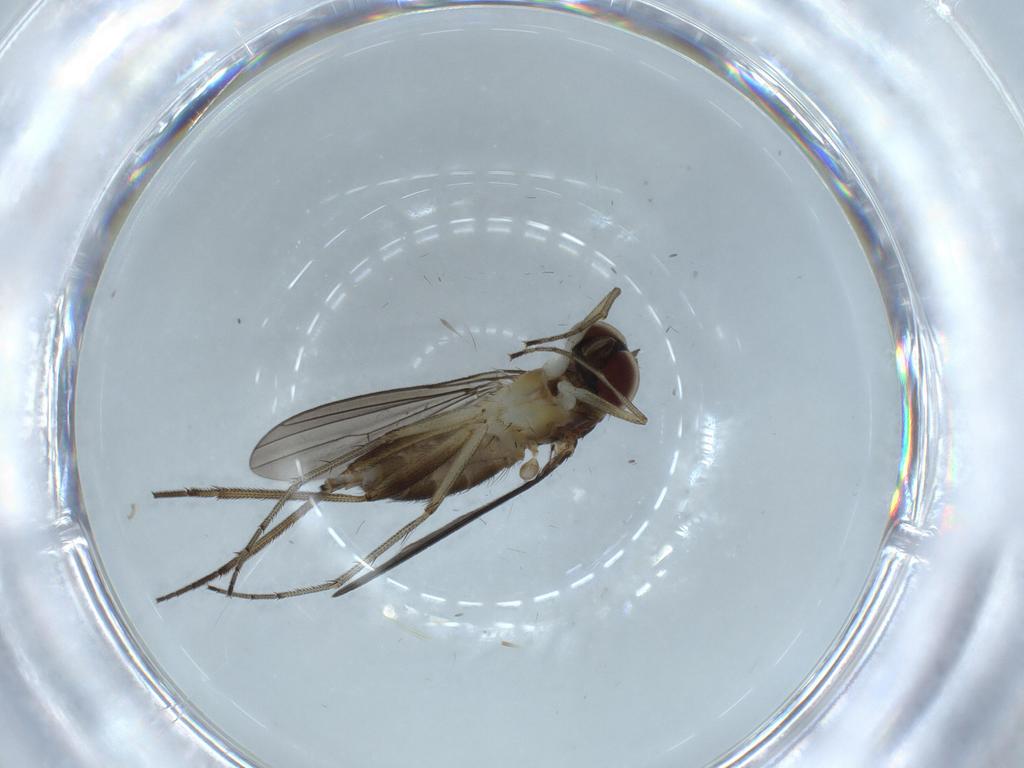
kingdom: Animalia
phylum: Arthropoda
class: Insecta
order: Diptera
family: Dolichopodidae
